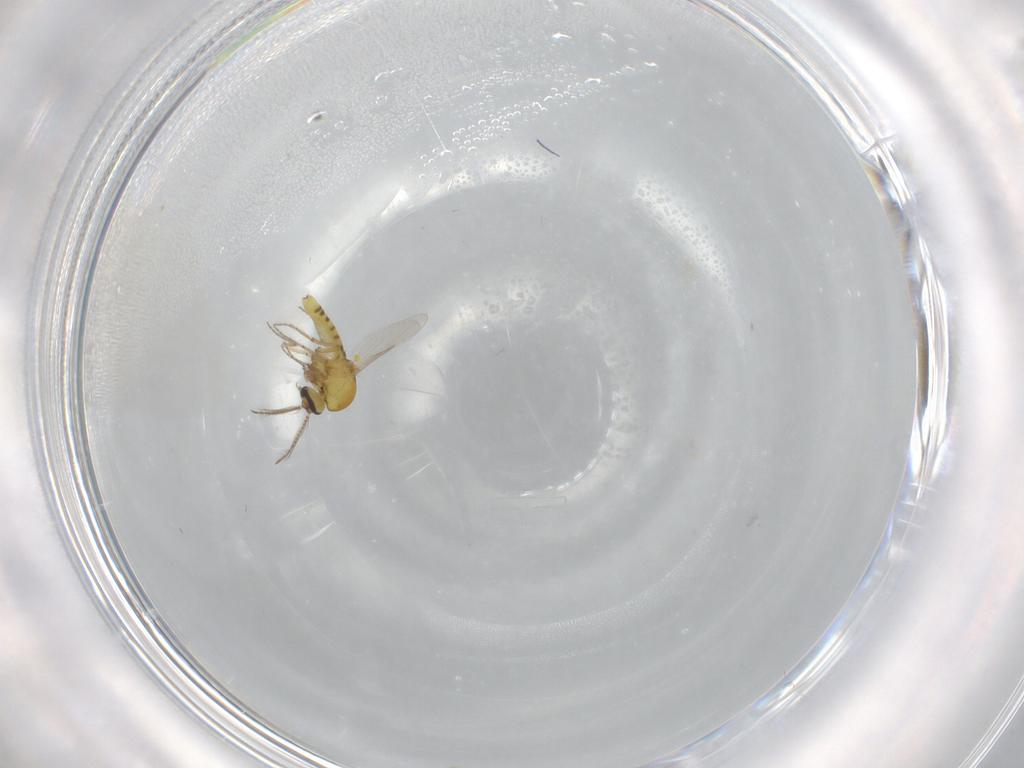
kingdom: Animalia
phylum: Arthropoda
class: Insecta
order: Diptera
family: Ceratopogonidae
